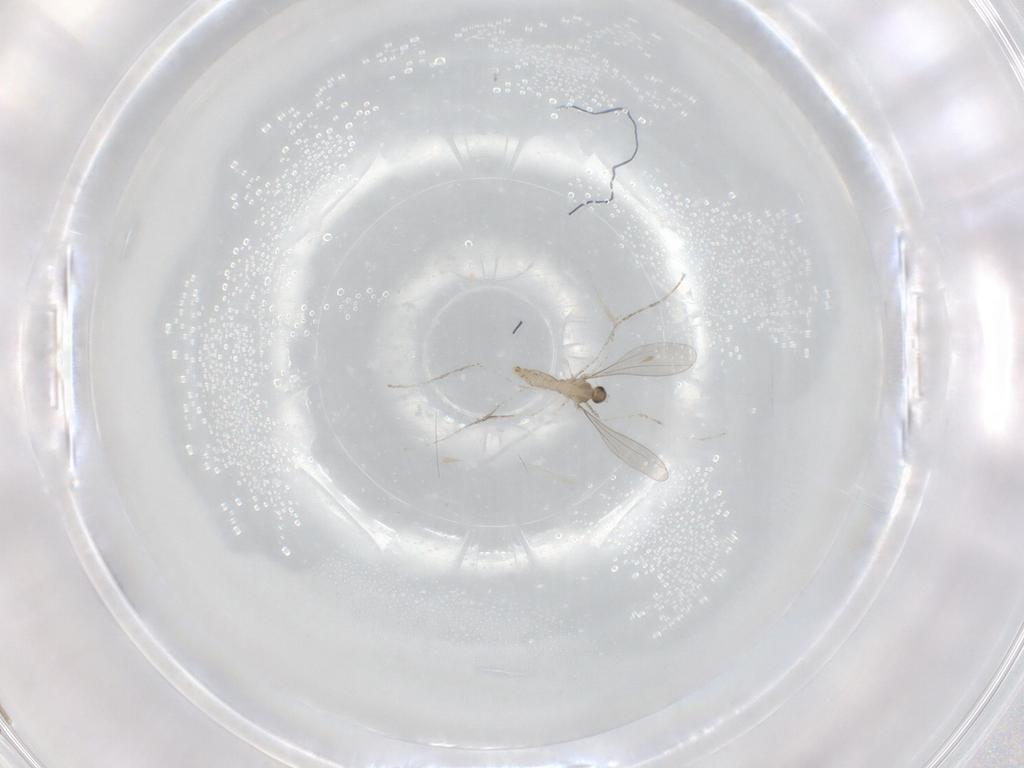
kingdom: Animalia
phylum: Arthropoda
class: Insecta
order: Diptera
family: Cecidomyiidae
